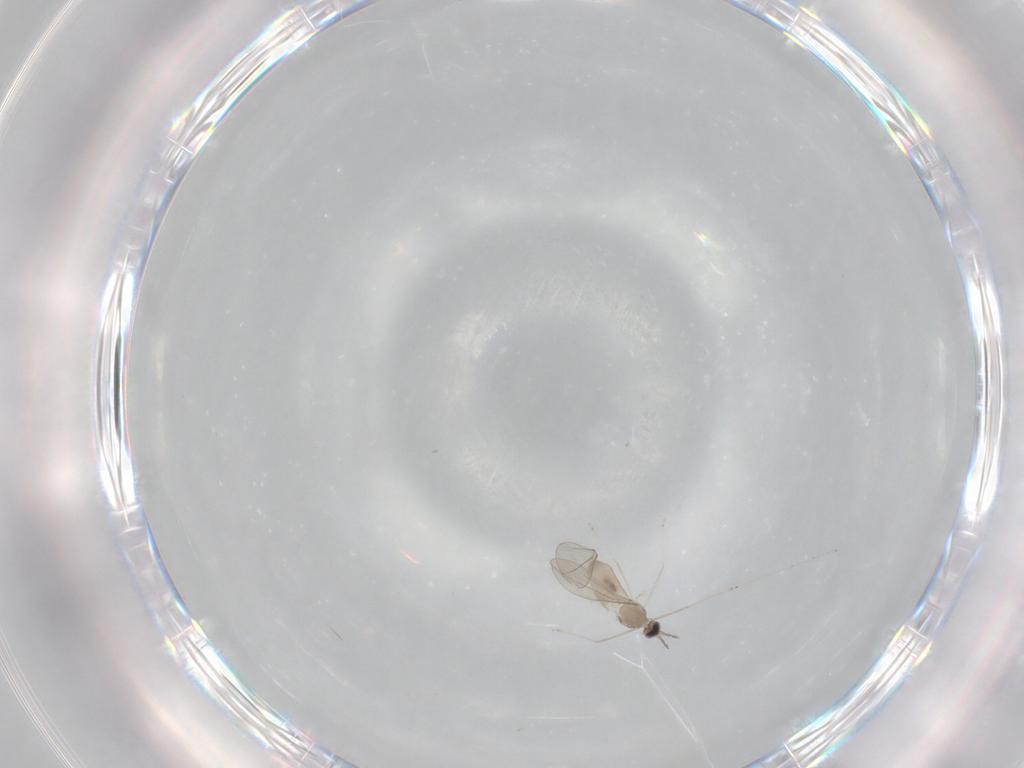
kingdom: Animalia
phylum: Arthropoda
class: Insecta
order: Diptera
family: Cecidomyiidae
